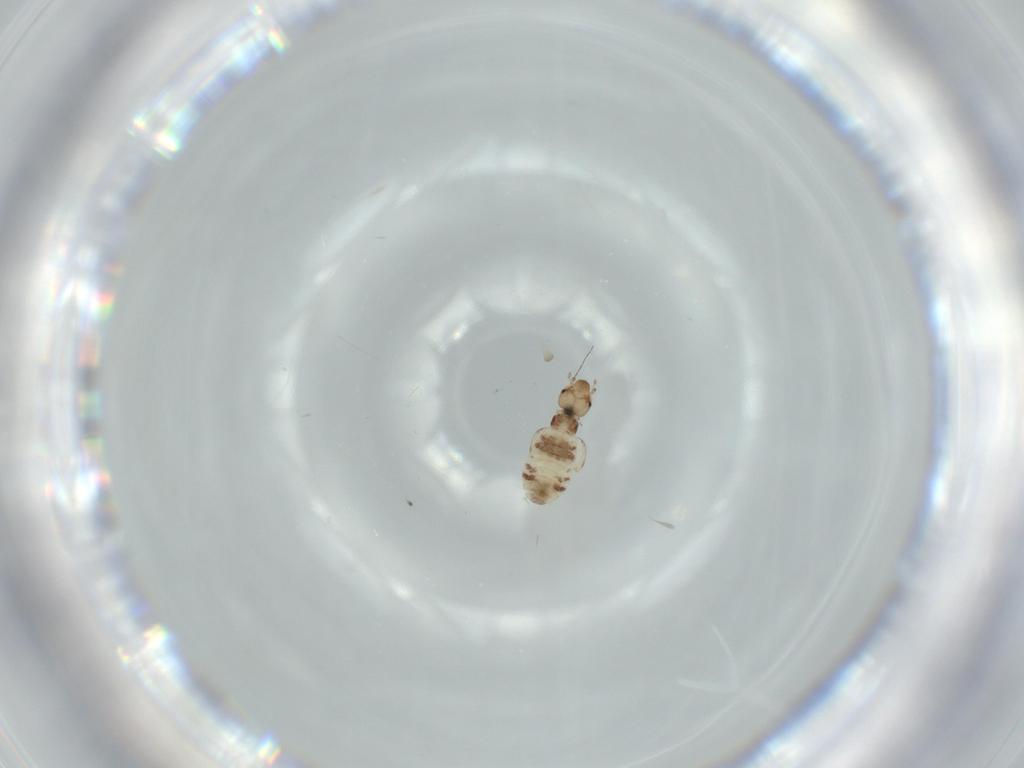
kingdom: Animalia
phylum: Arthropoda
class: Insecta
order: Psocodea
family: Liposcelididae
